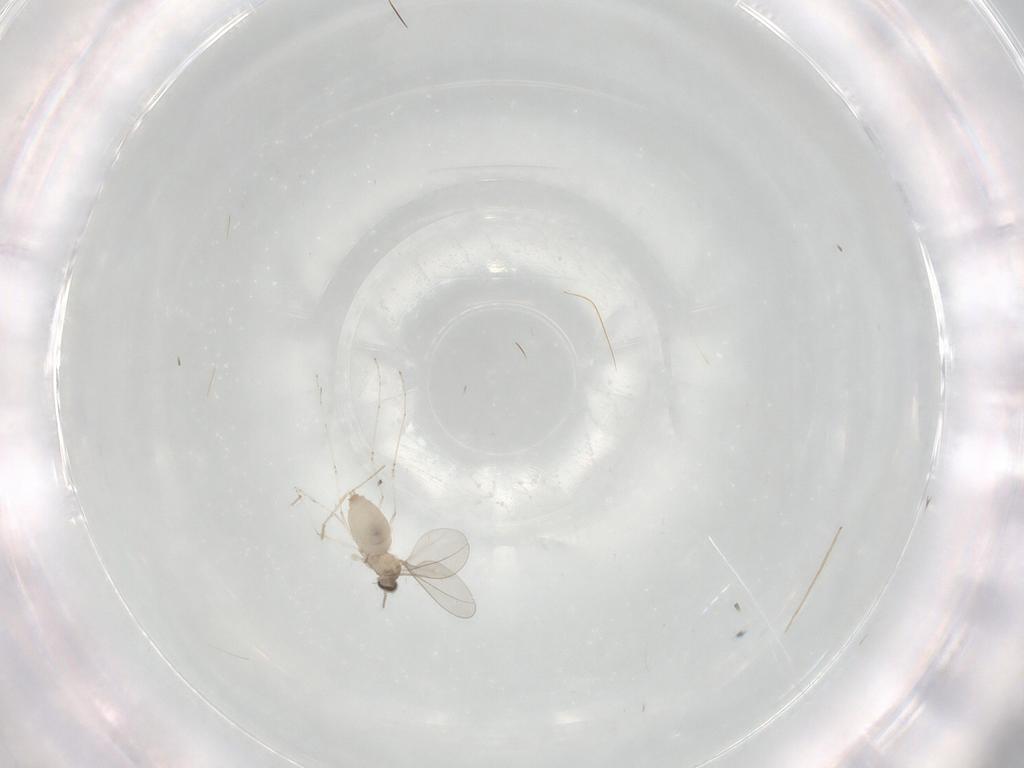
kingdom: Animalia
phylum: Arthropoda
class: Insecta
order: Diptera
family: Cecidomyiidae
